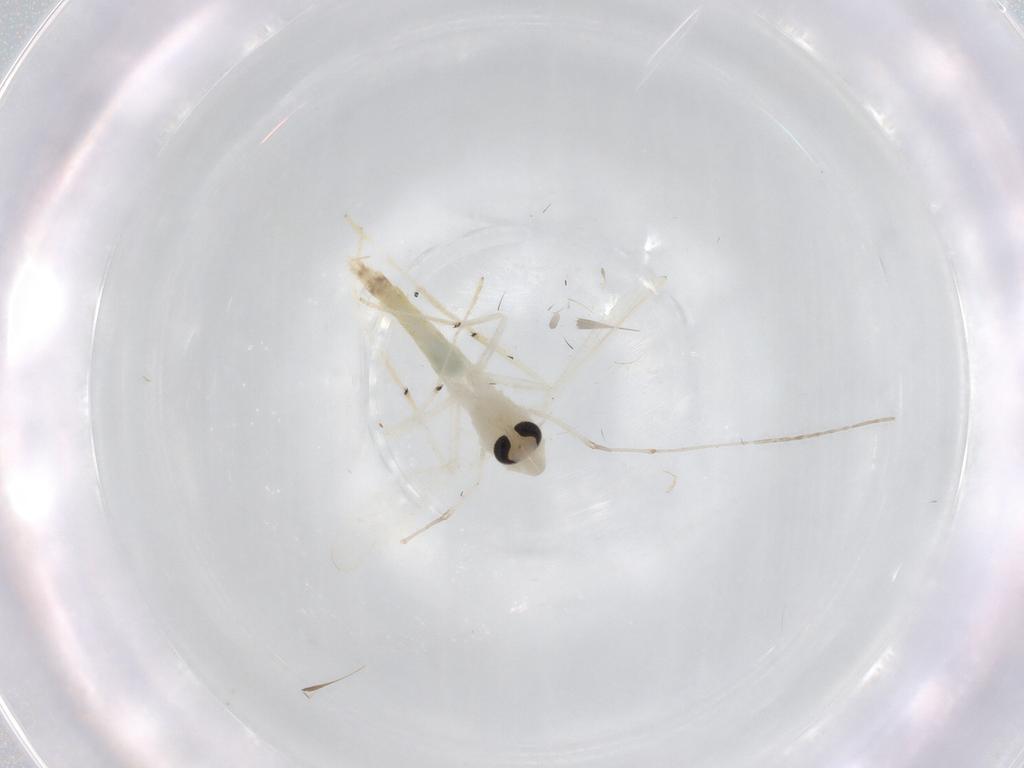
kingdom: Animalia
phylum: Arthropoda
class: Insecta
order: Diptera
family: Chironomidae
